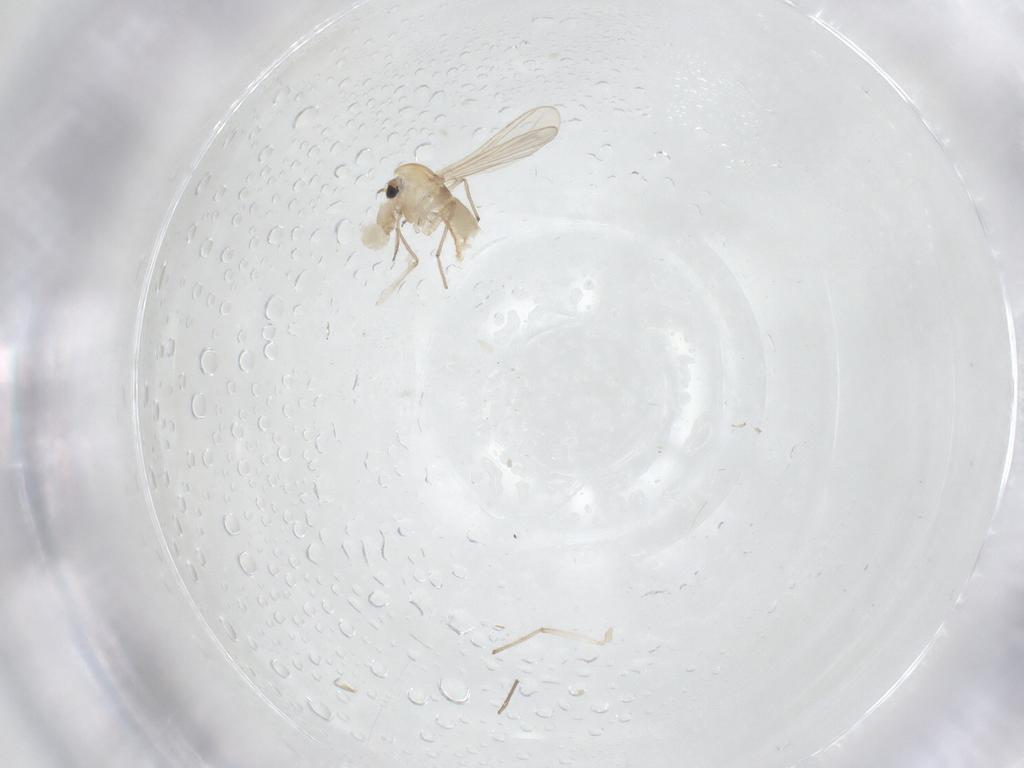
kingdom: Animalia
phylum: Arthropoda
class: Insecta
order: Diptera
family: Chironomidae
